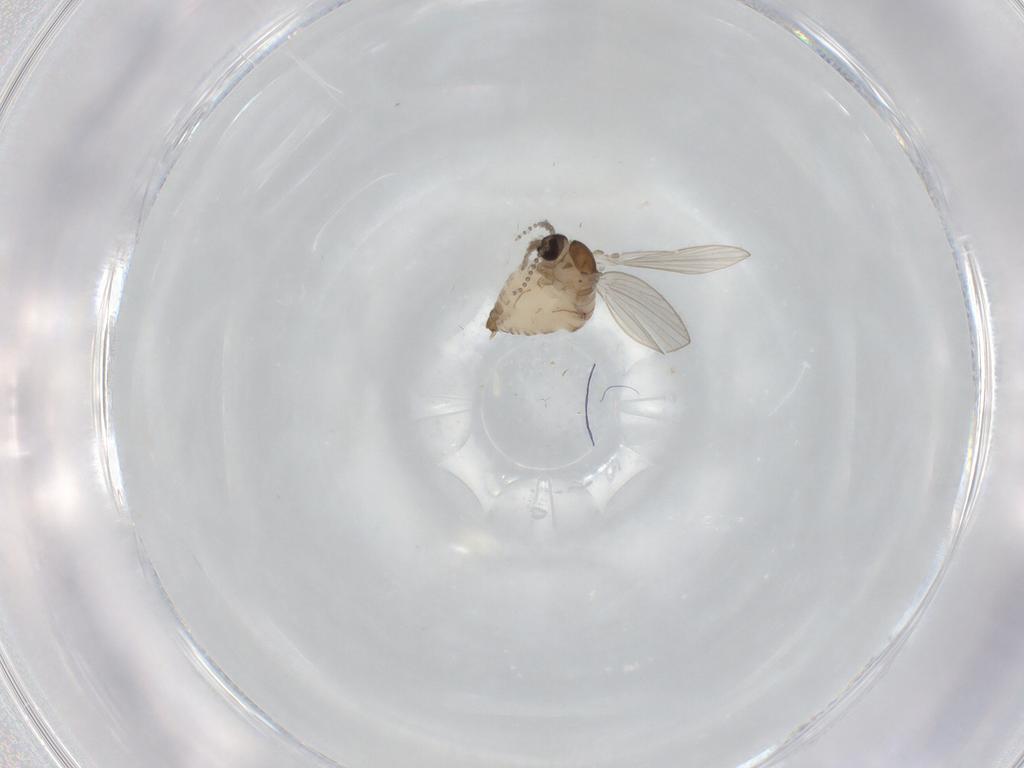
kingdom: Animalia
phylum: Arthropoda
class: Insecta
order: Diptera
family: Psychodidae
